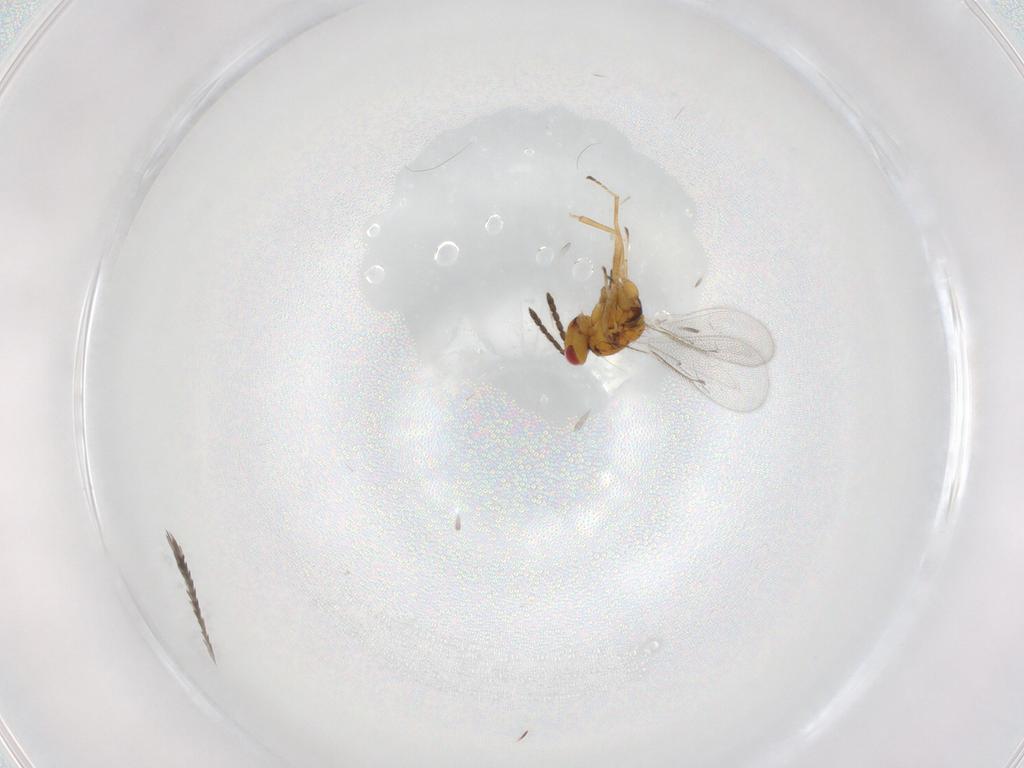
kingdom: Animalia
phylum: Arthropoda
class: Insecta
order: Hymenoptera
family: Eulophidae
